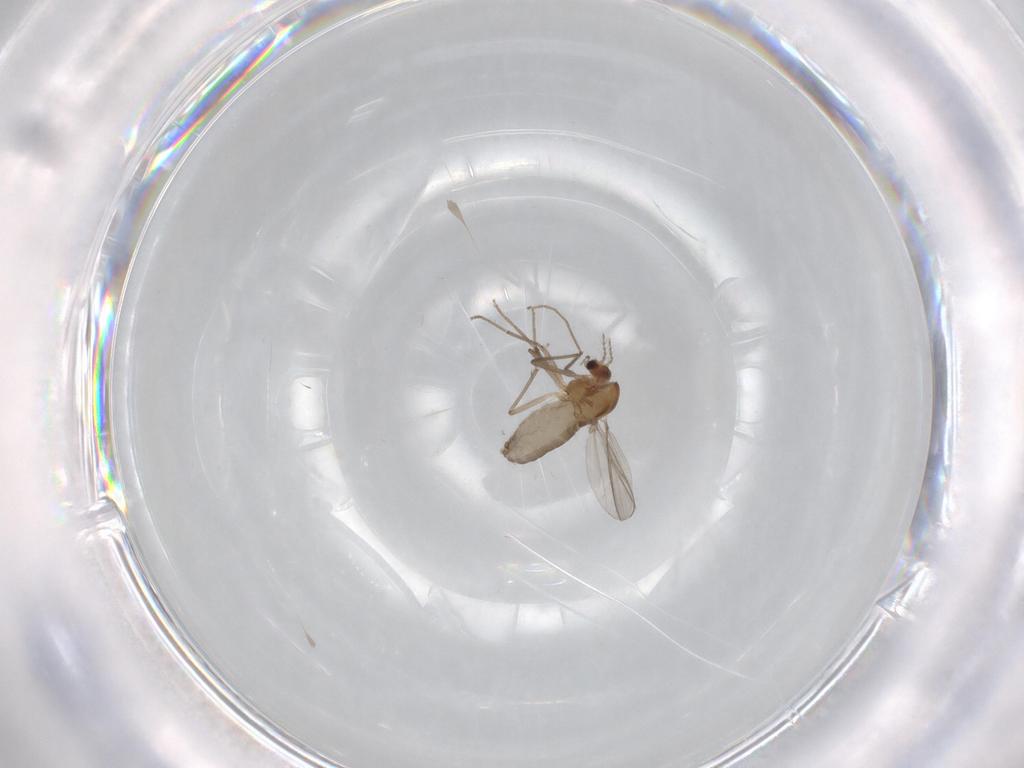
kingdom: Animalia
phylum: Arthropoda
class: Insecta
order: Diptera
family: Chironomidae
